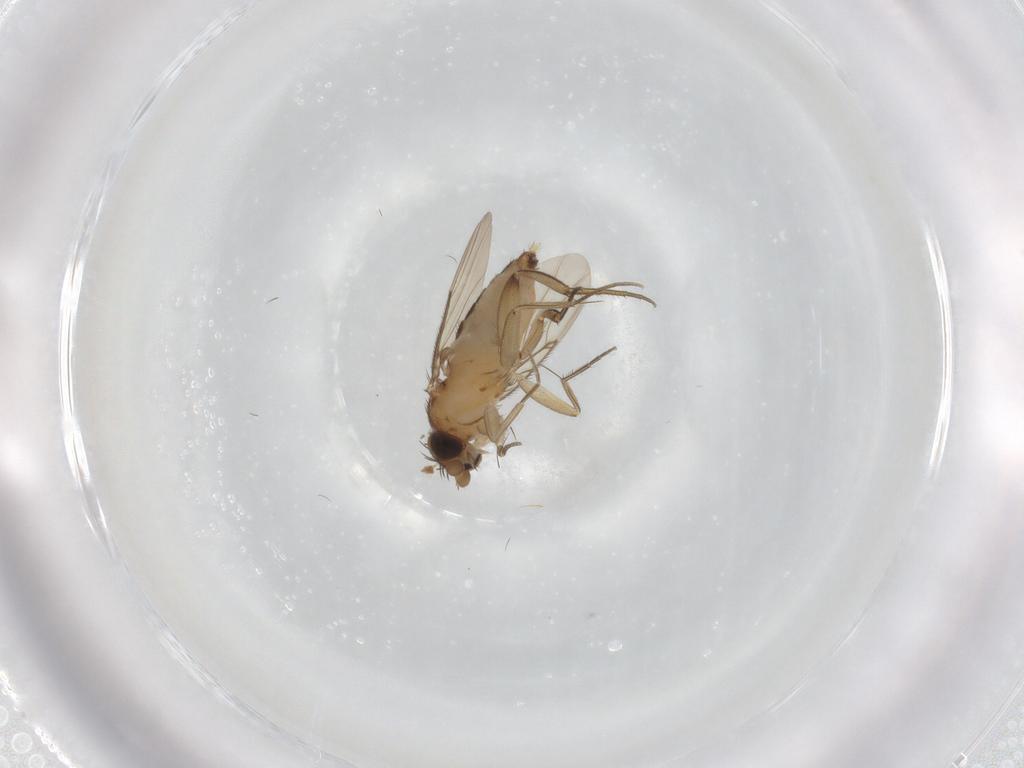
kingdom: Animalia
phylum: Arthropoda
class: Insecta
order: Diptera
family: Phoridae
